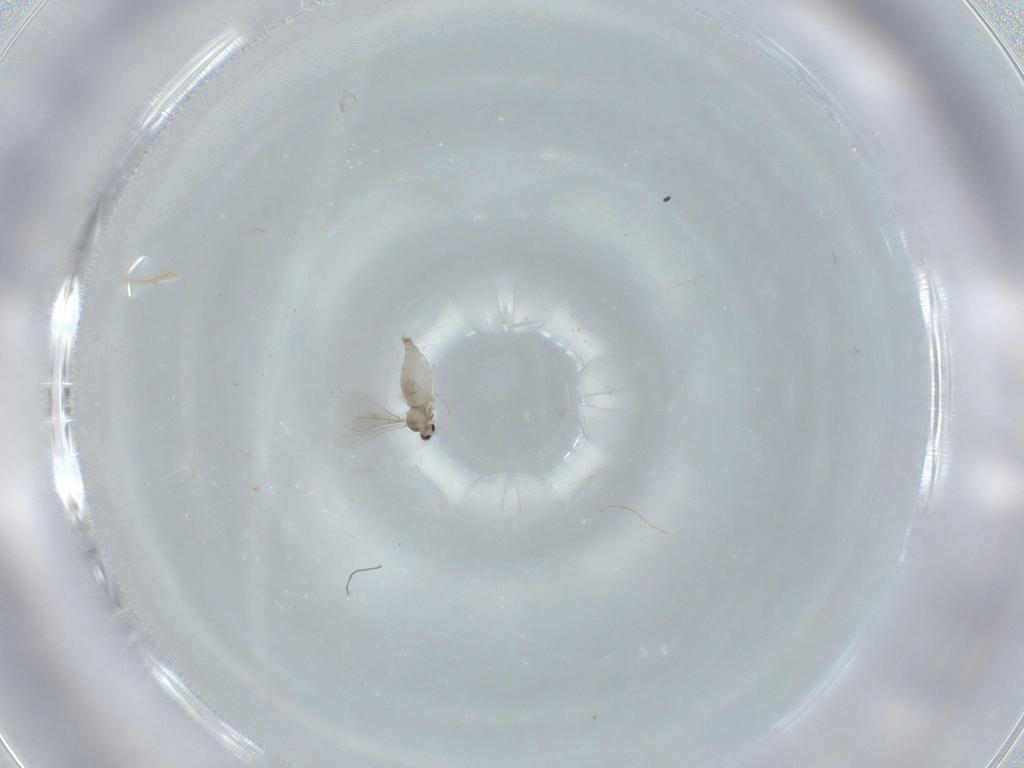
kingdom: Animalia
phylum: Arthropoda
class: Insecta
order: Diptera
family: Cecidomyiidae
